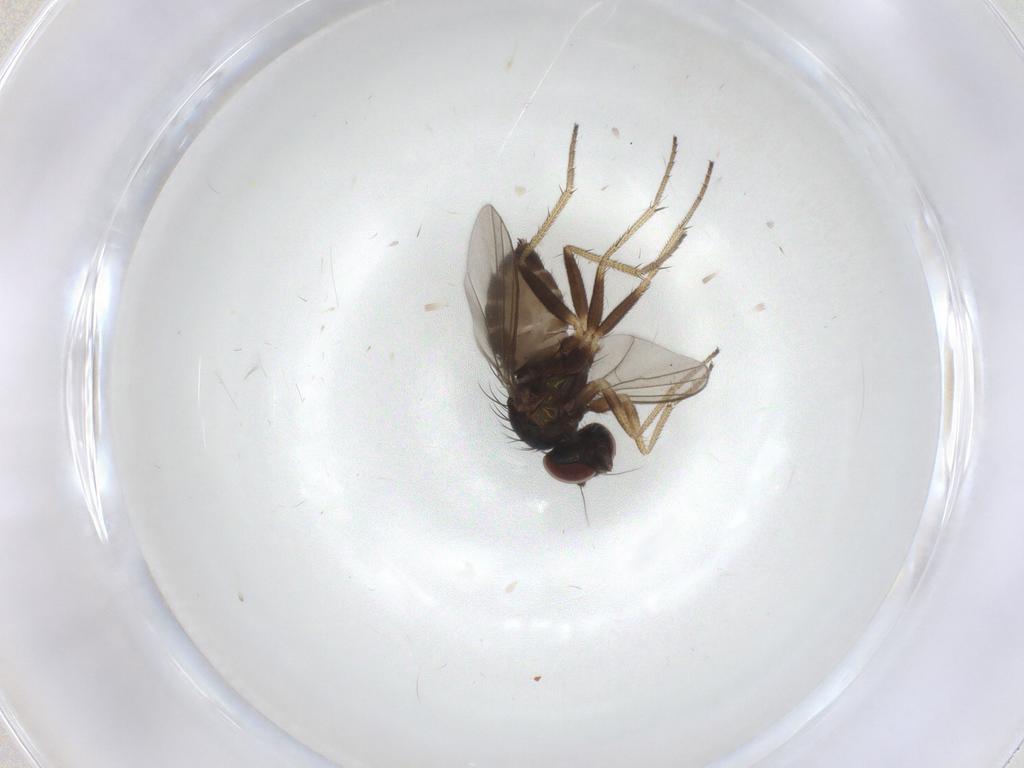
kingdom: Animalia
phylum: Arthropoda
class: Insecta
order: Diptera
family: Dolichopodidae
